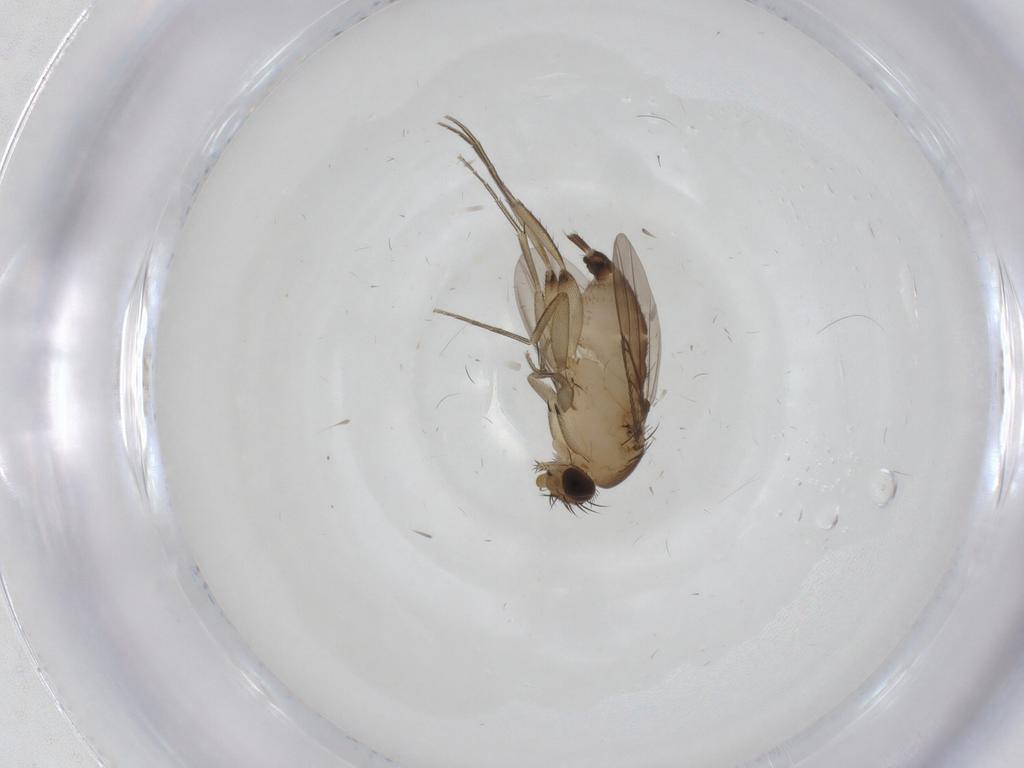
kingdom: Animalia
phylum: Arthropoda
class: Insecta
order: Diptera
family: Phoridae
